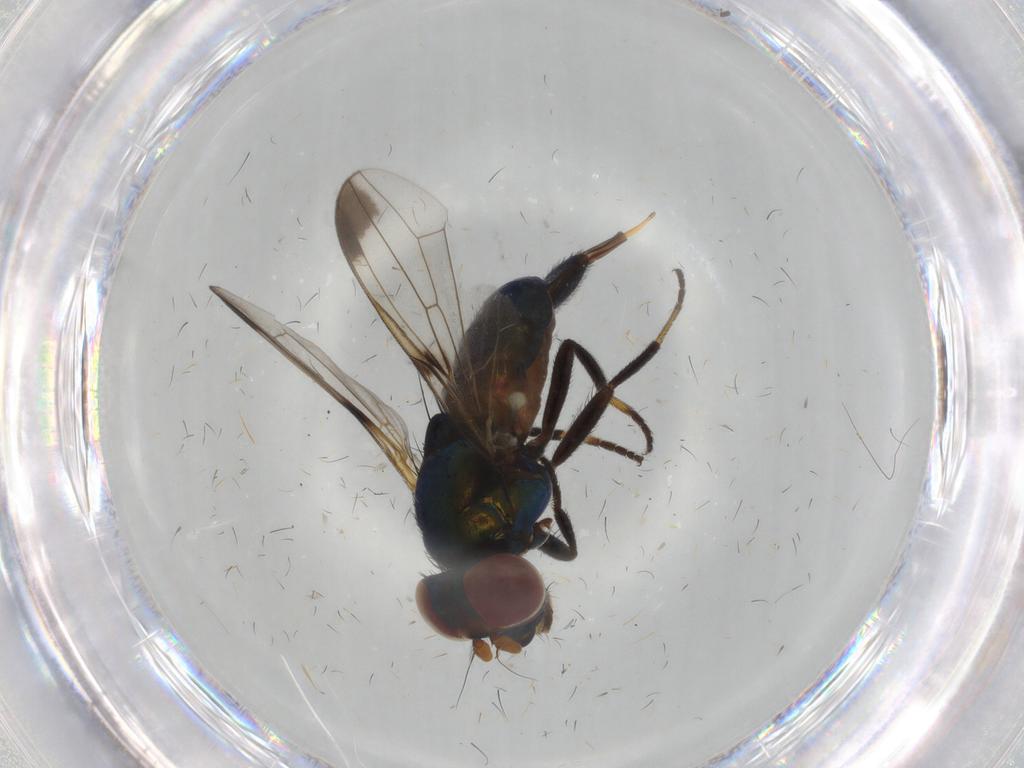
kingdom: Animalia
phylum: Arthropoda
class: Insecta
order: Diptera
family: Ulidiidae
